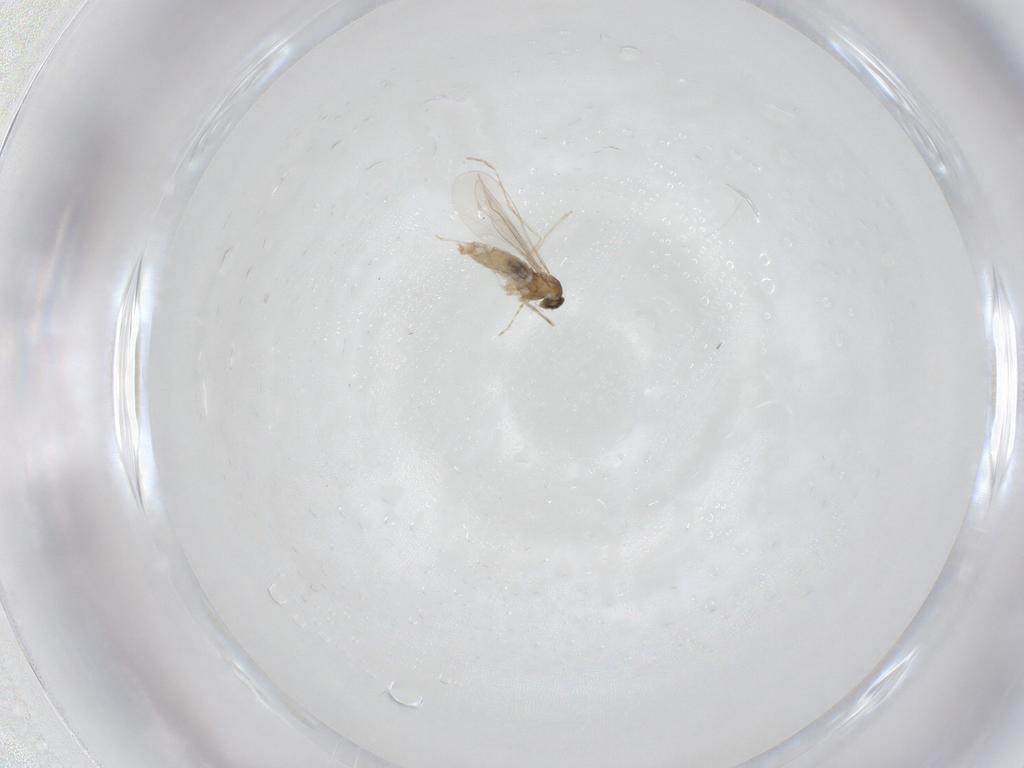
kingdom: Animalia
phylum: Arthropoda
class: Insecta
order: Diptera
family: Cecidomyiidae
